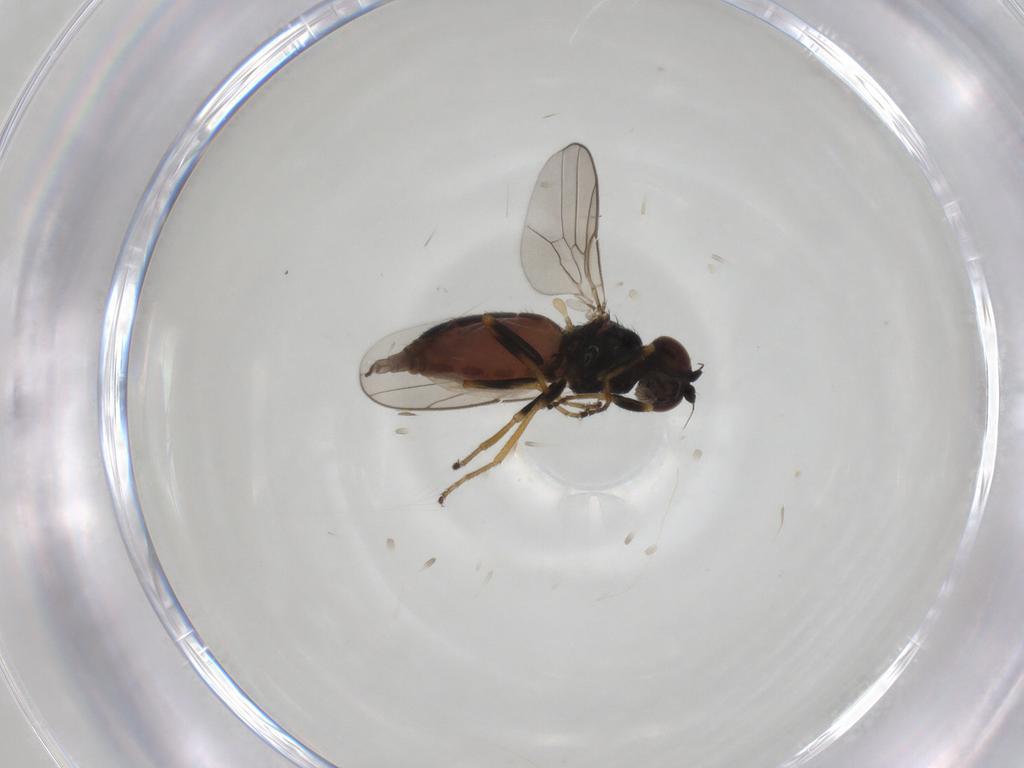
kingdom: Animalia
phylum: Arthropoda
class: Insecta
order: Diptera
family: Chloropidae
